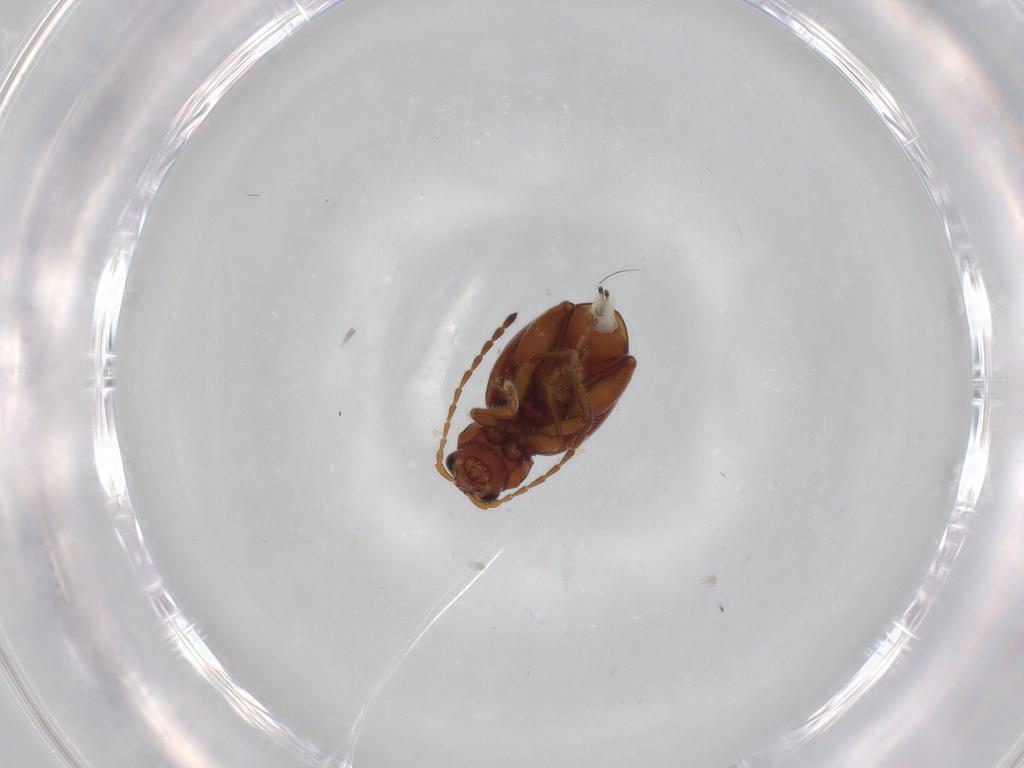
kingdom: Animalia
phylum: Arthropoda
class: Insecta
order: Coleoptera
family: Chrysomelidae
